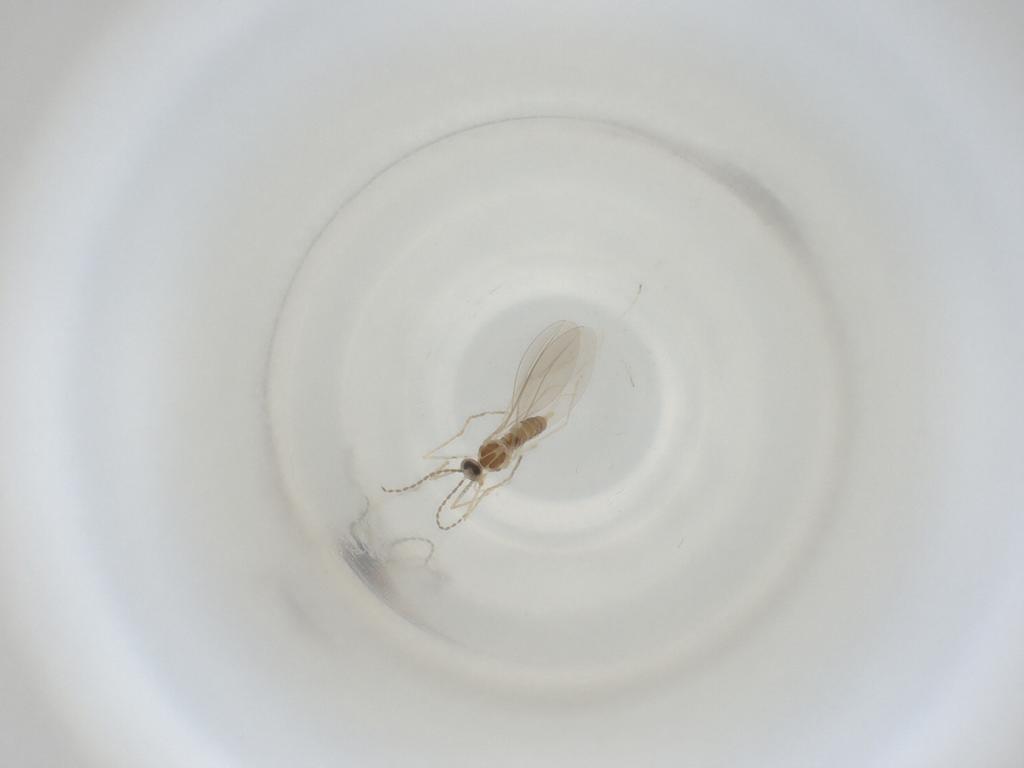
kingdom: Animalia
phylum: Arthropoda
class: Insecta
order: Diptera
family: Cecidomyiidae
